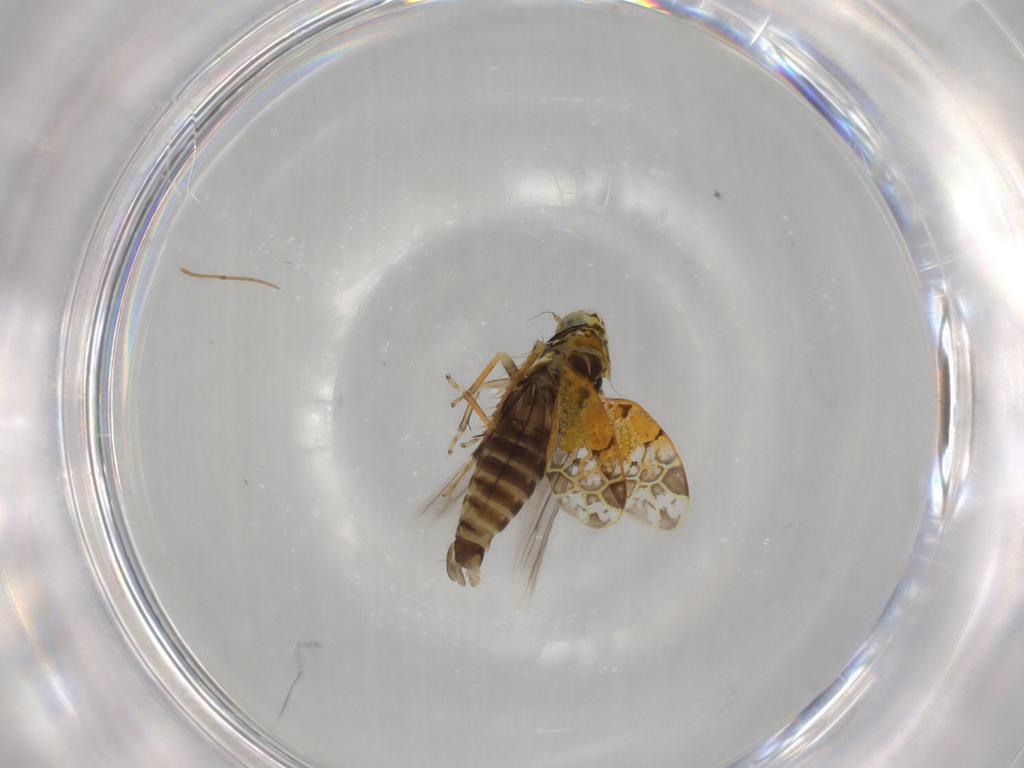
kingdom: Animalia
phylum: Arthropoda
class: Insecta
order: Hemiptera
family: Cicadellidae
